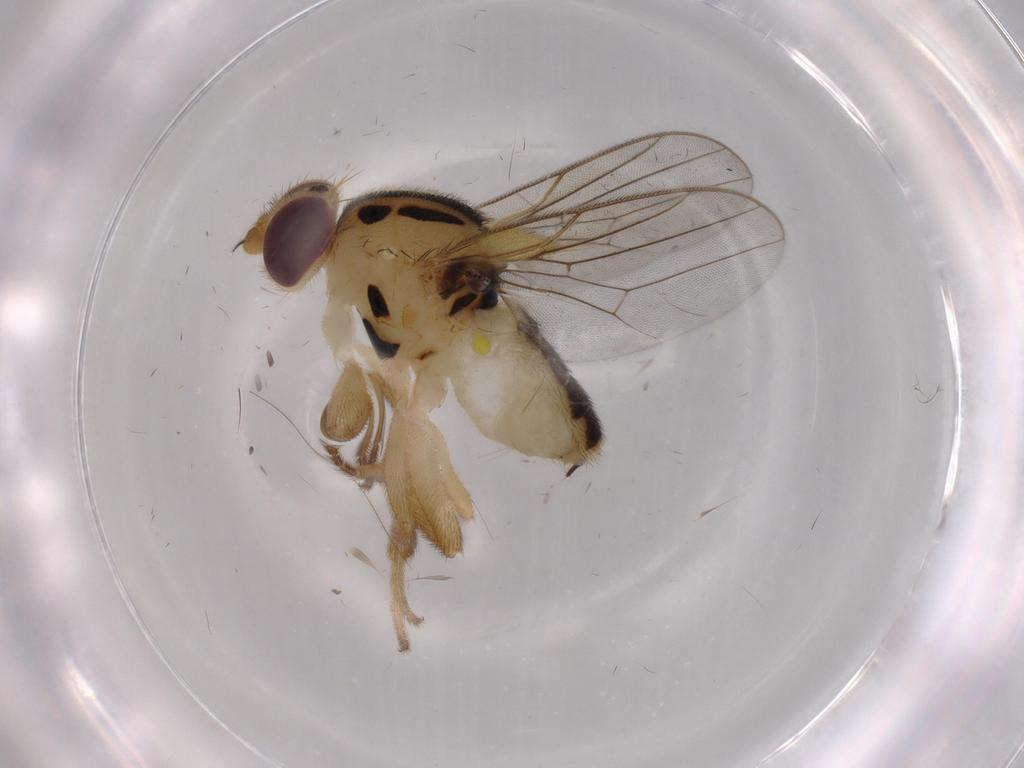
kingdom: Animalia
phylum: Arthropoda
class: Insecta
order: Diptera
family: Chloropidae
